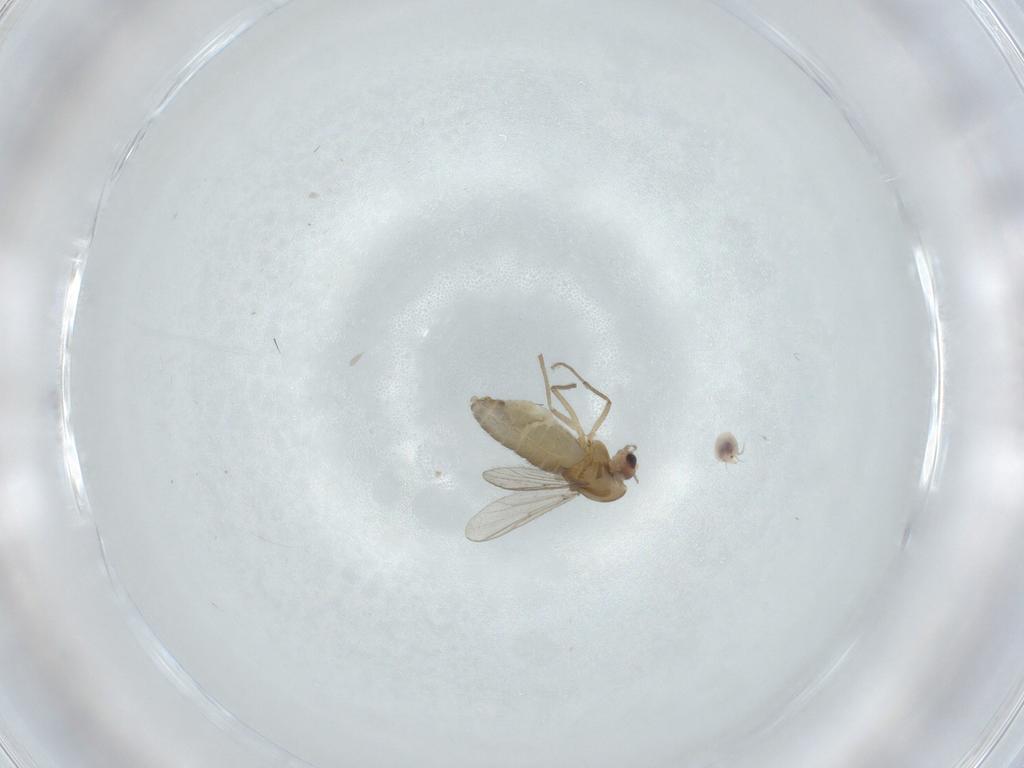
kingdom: Animalia
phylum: Arthropoda
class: Insecta
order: Diptera
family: Chironomidae
